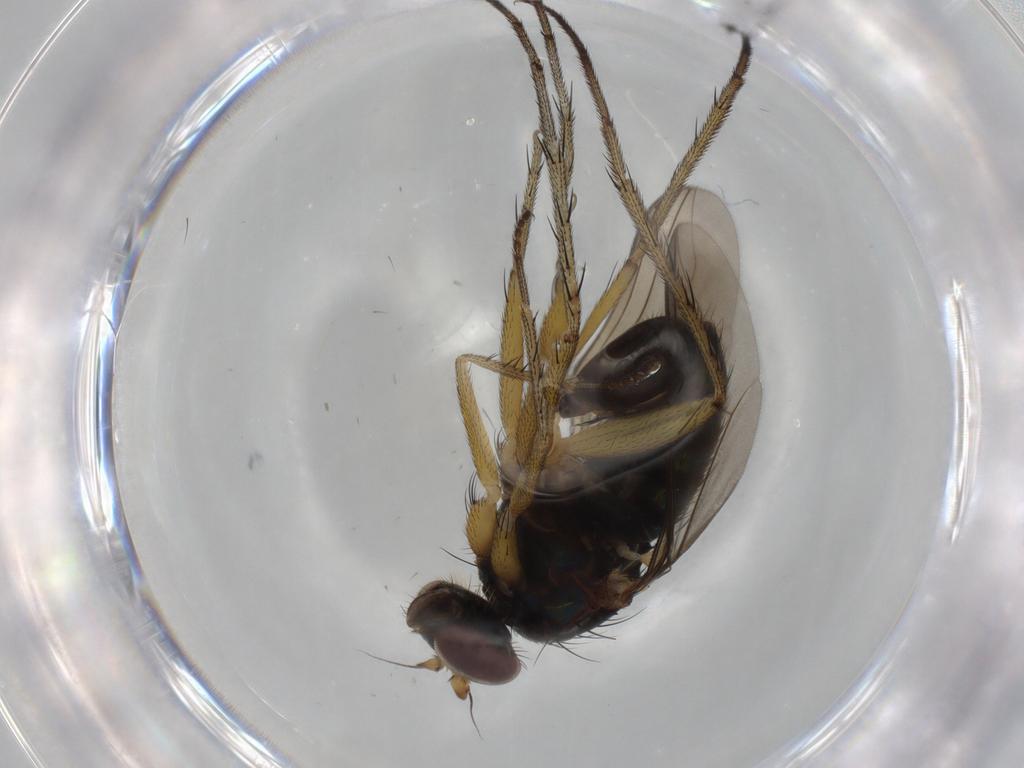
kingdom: Animalia
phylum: Arthropoda
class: Insecta
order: Diptera
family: Dolichopodidae
